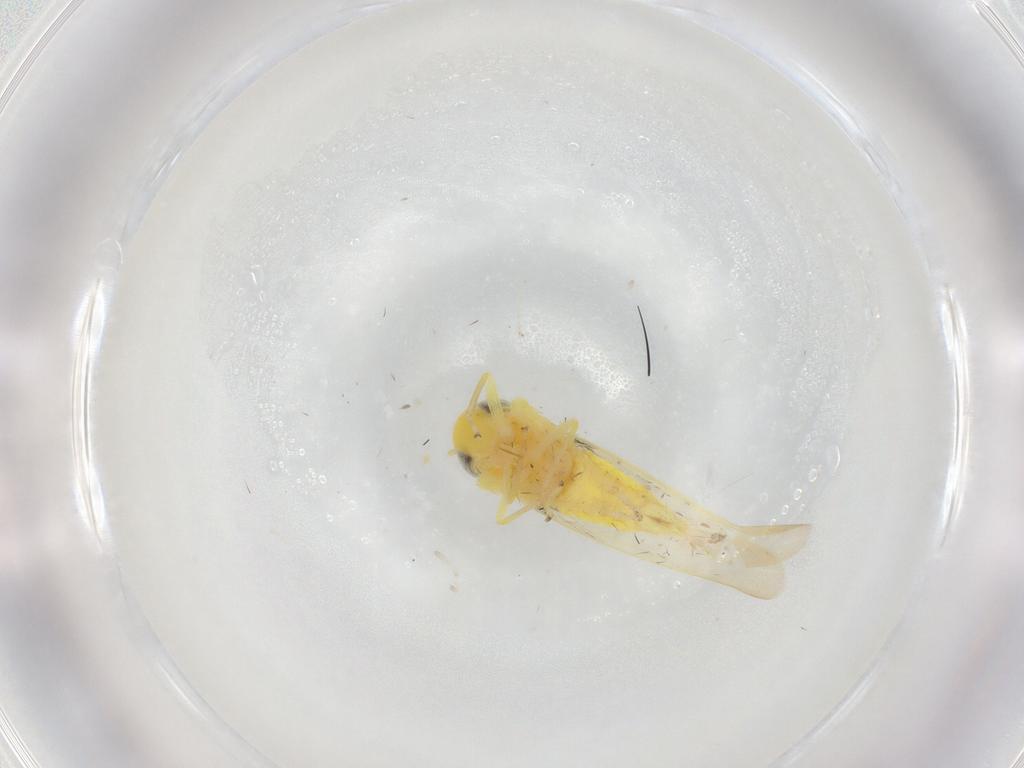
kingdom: Animalia
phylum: Arthropoda
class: Insecta
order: Hemiptera
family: Cicadellidae
